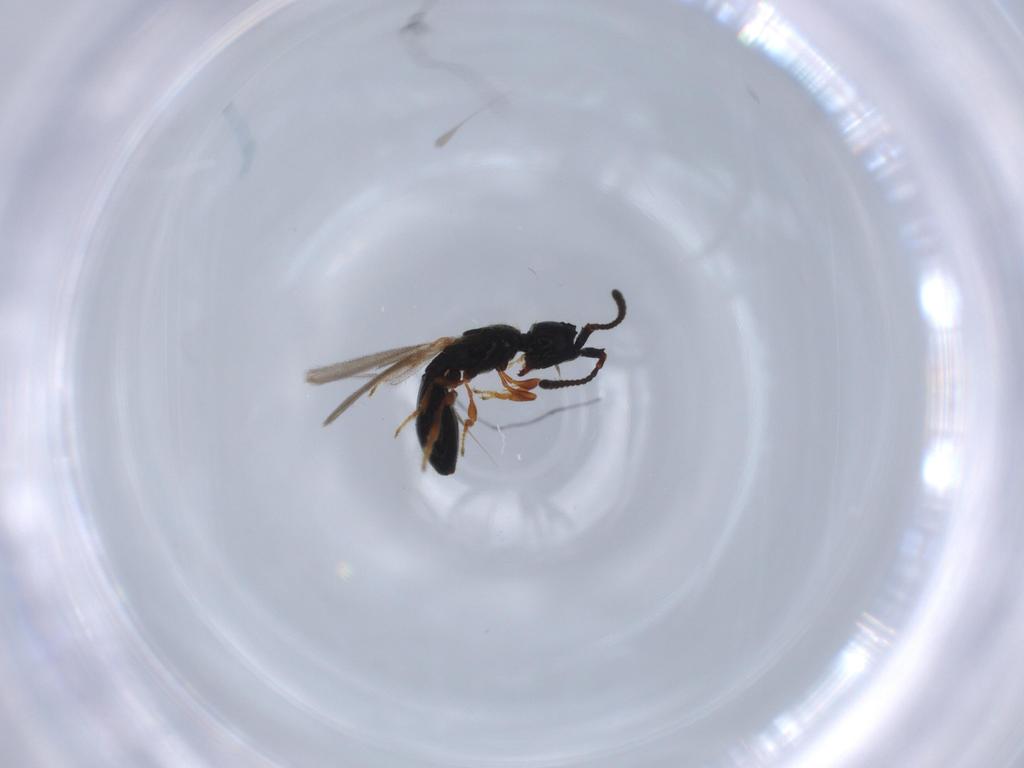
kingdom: Animalia
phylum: Arthropoda
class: Insecta
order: Hymenoptera
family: Diapriidae
